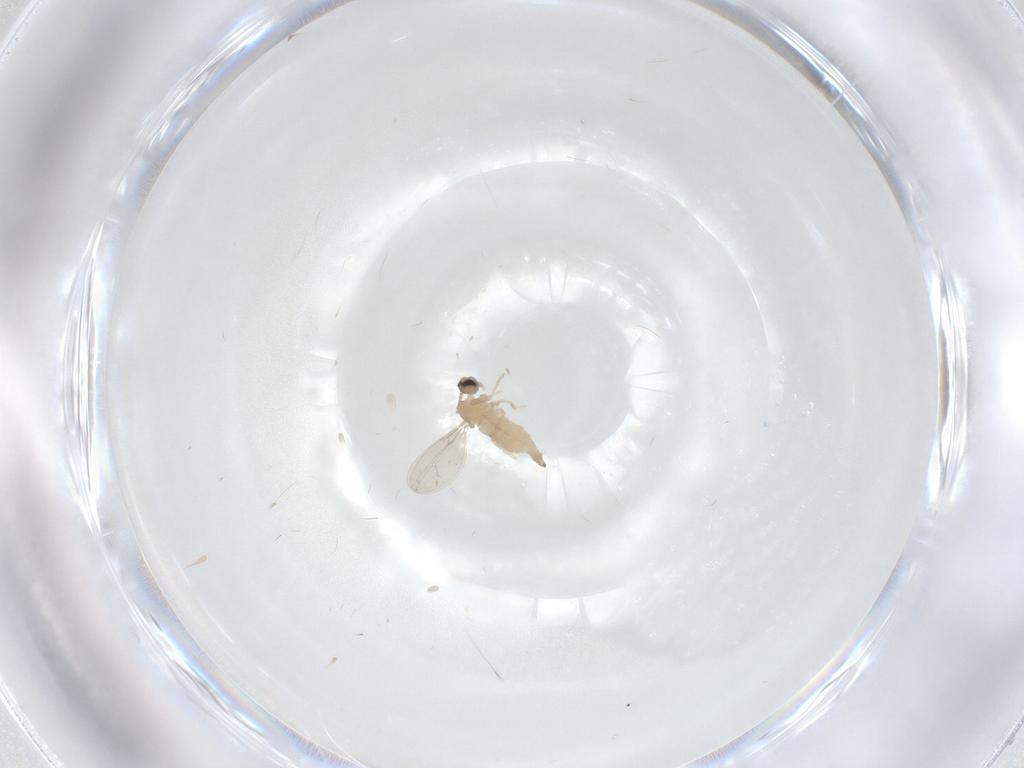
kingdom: Animalia
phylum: Arthropoda
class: Insecta
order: Diptera
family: Cecidomyiidae
